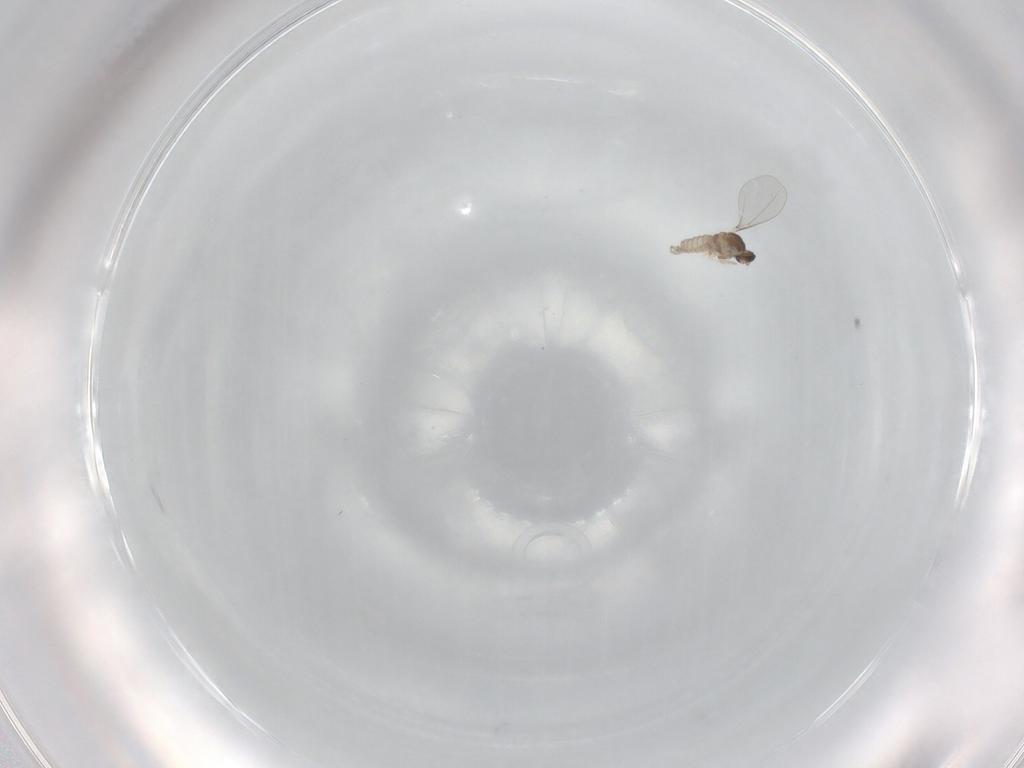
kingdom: Animalia
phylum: Arthropoda
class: Insecta
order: Diptera
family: Cecidomyiidae
